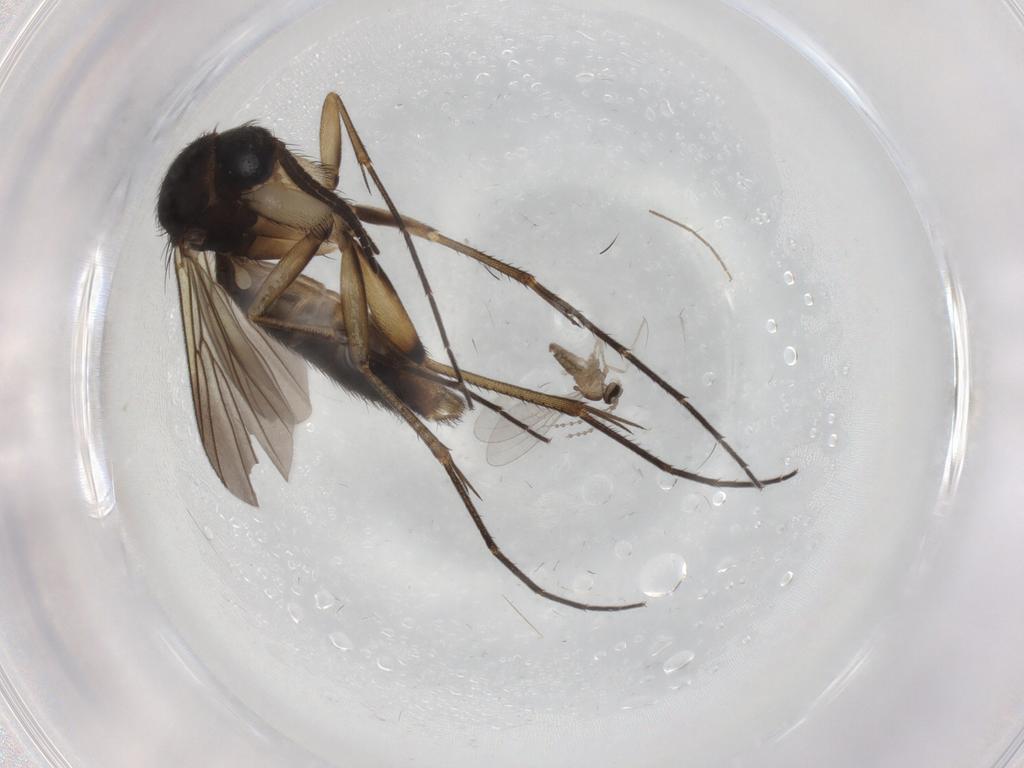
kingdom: Animalia
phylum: Arthropoda
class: Insecta
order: Diptera
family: Cecidomyiidae
